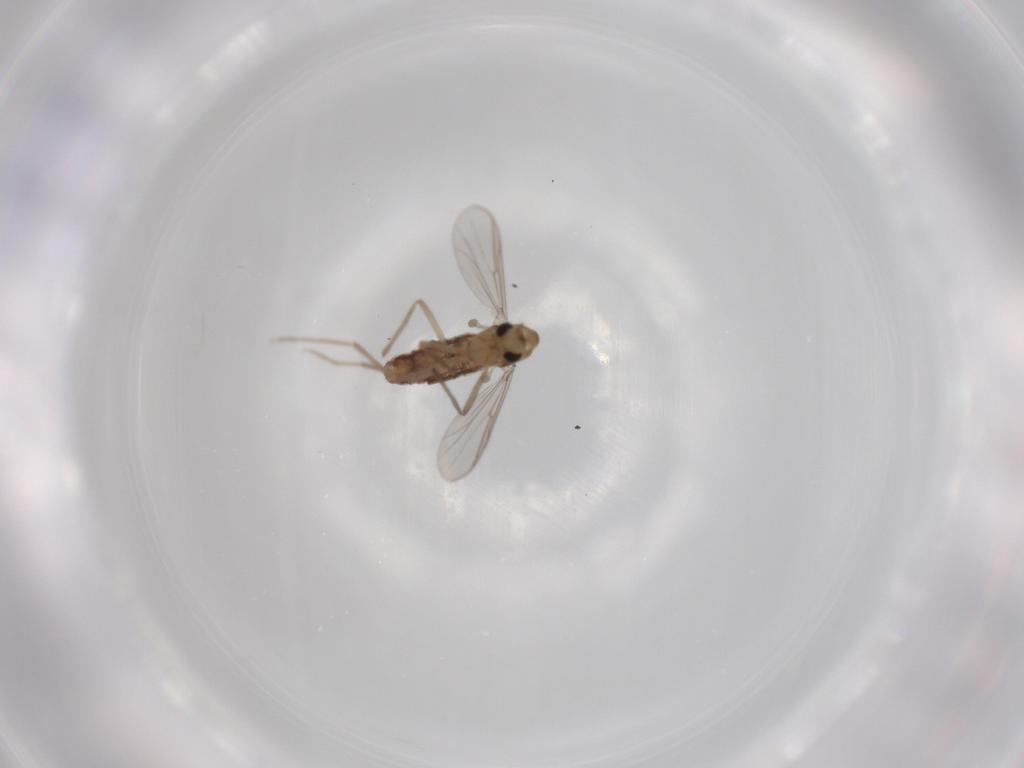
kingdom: Animalia
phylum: Arthropoda
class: Insecta
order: Diptera
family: Chironomidae
